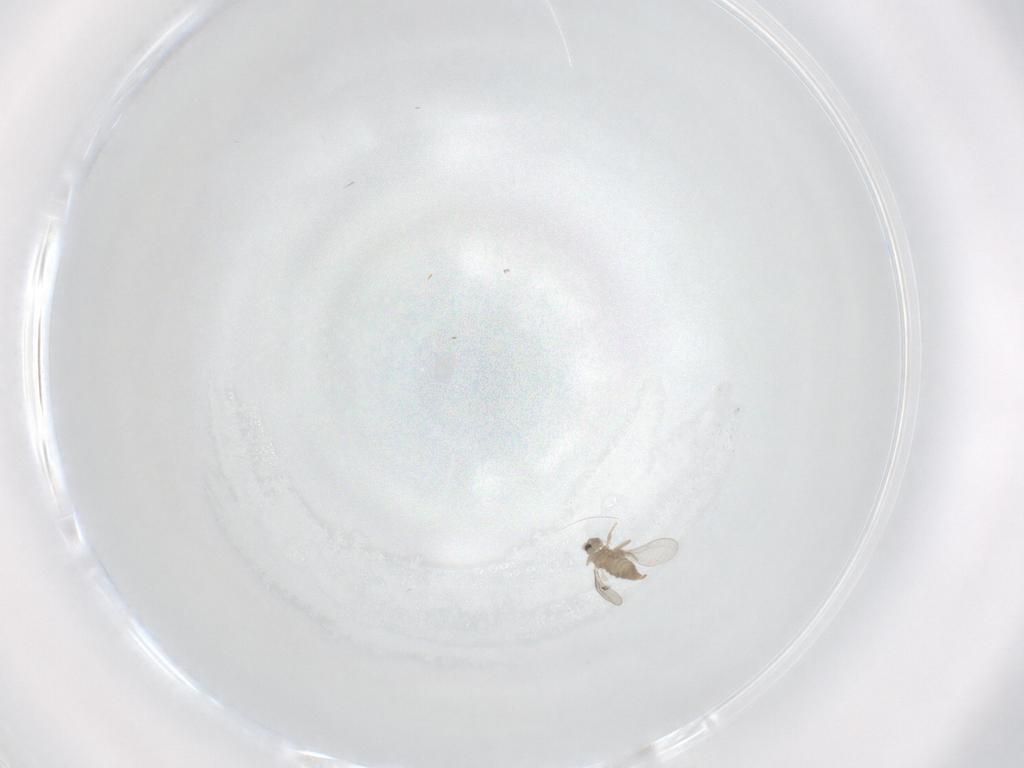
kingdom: Animalia
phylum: Arthropoda
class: Insecta
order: Diptera
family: Cecidomyiidae
